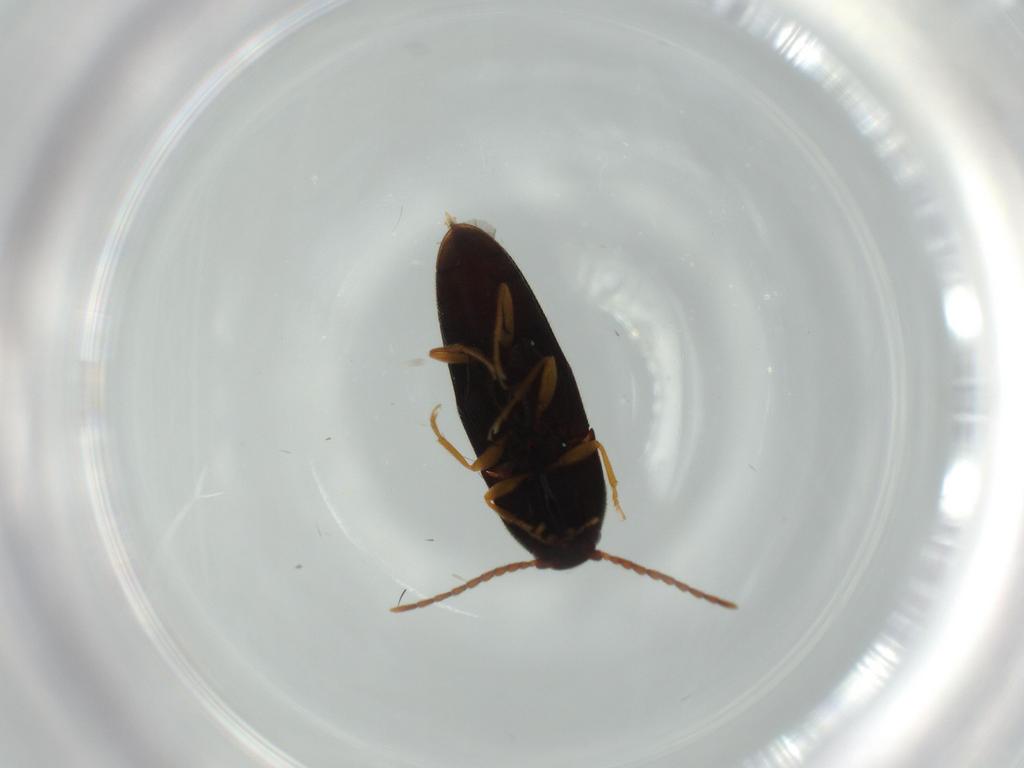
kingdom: Animalia
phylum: Arthropoda
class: Insecta
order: Coleoptera
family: Elateridae
